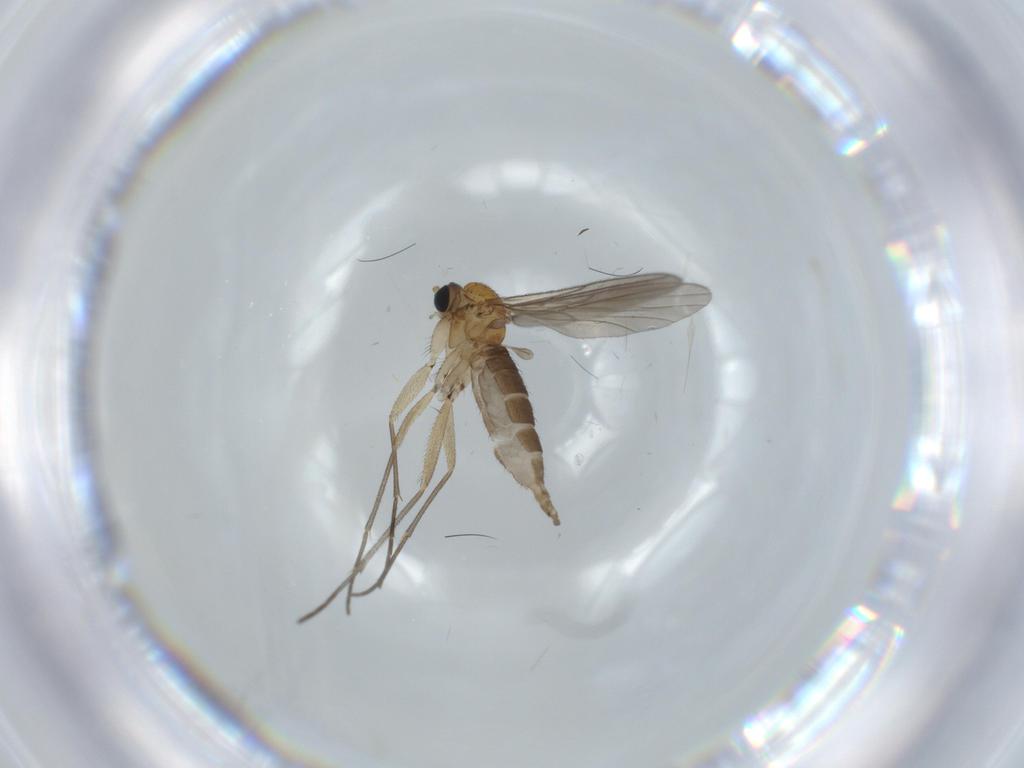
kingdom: Animalia
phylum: Arthropoda
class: Insecta
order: Diptera
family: Sciaridae
